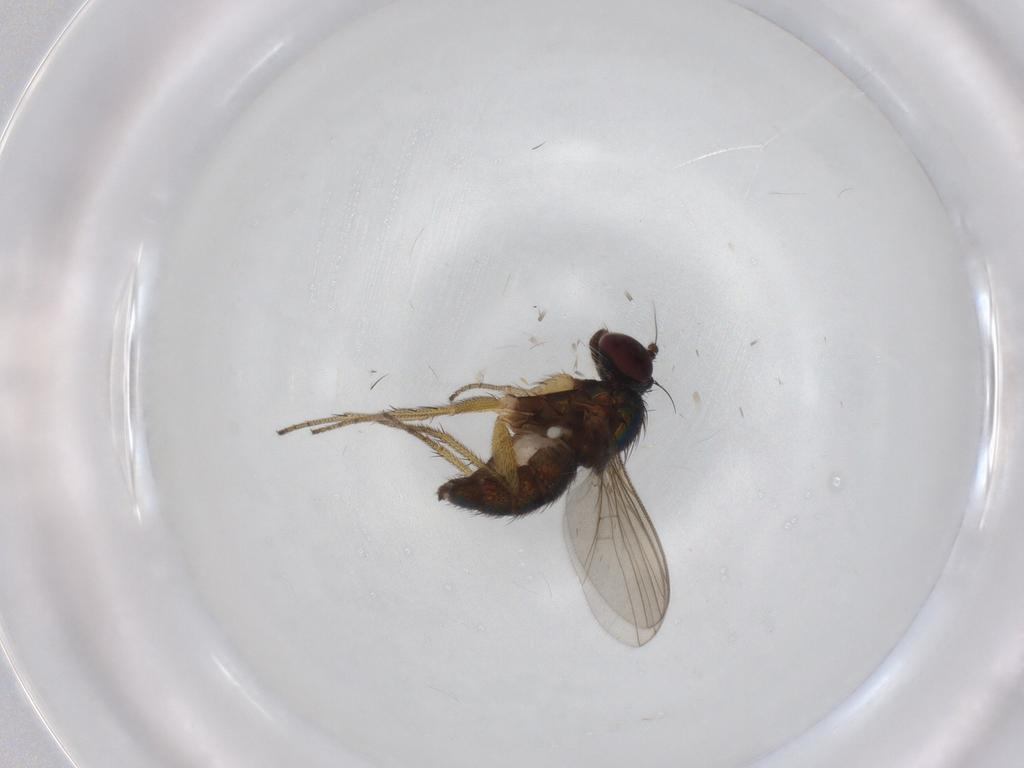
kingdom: Animalia
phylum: Arthropoda
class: Insecta
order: Diptera
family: Dolichopodidae
